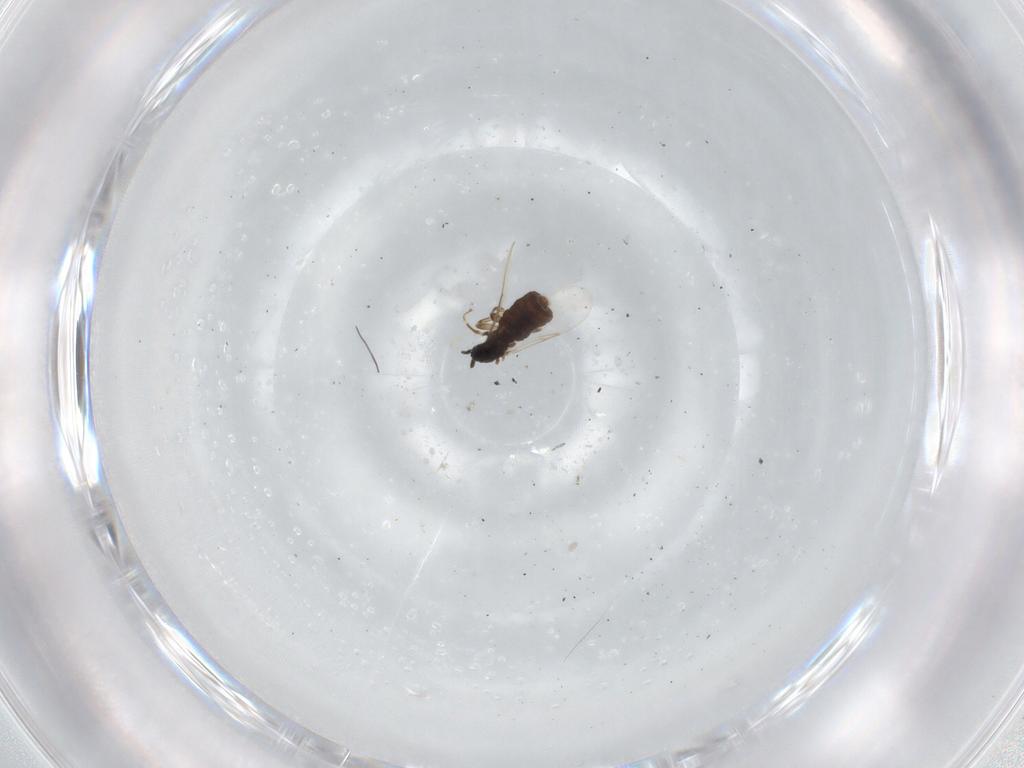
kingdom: Animalia
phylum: Arthropoda
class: Insecta
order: Diptera
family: Scatopsidae
